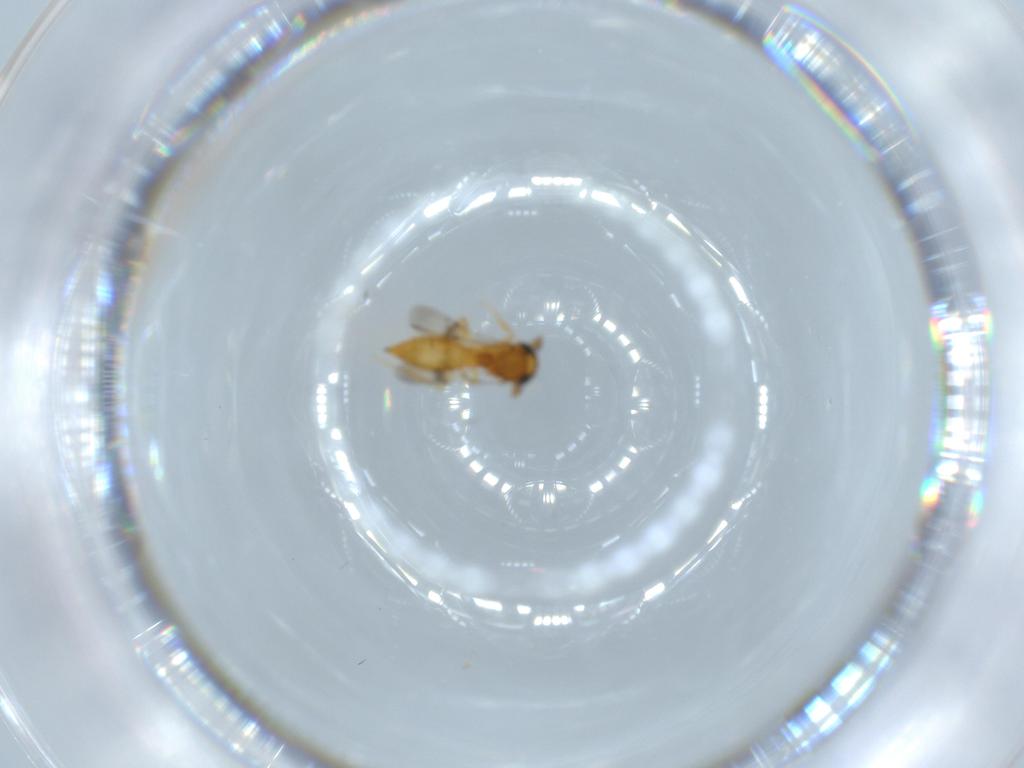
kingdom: Animalia
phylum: Arthropoda
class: Insecta
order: Hymenoptera
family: Scelionidae
